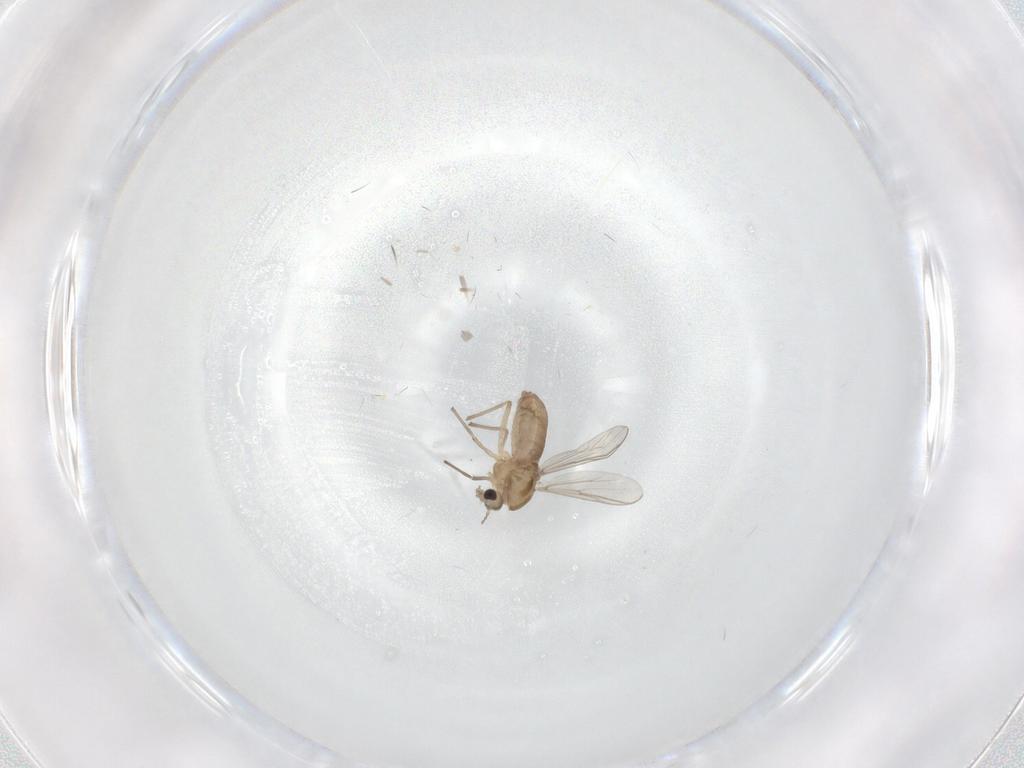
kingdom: Animalia
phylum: Arthropoda
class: Insecta
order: Diptera
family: Chironomidae
